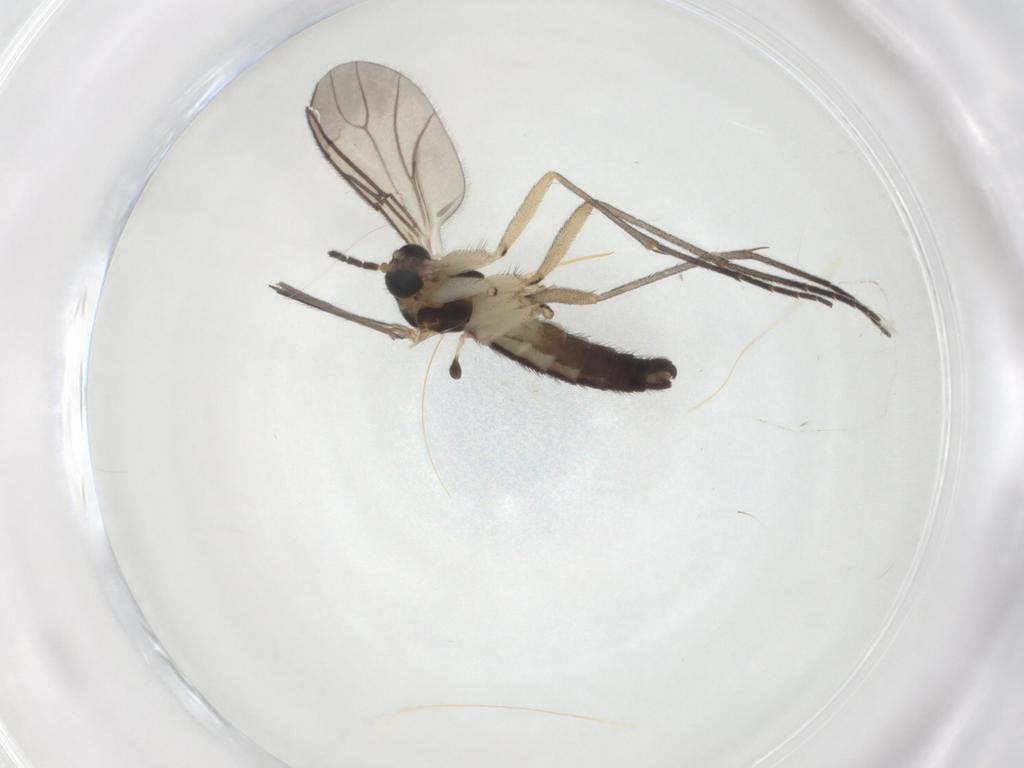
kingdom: Animalia
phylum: Arthropoda
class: Insecta
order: Diptera
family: Sciaridae
